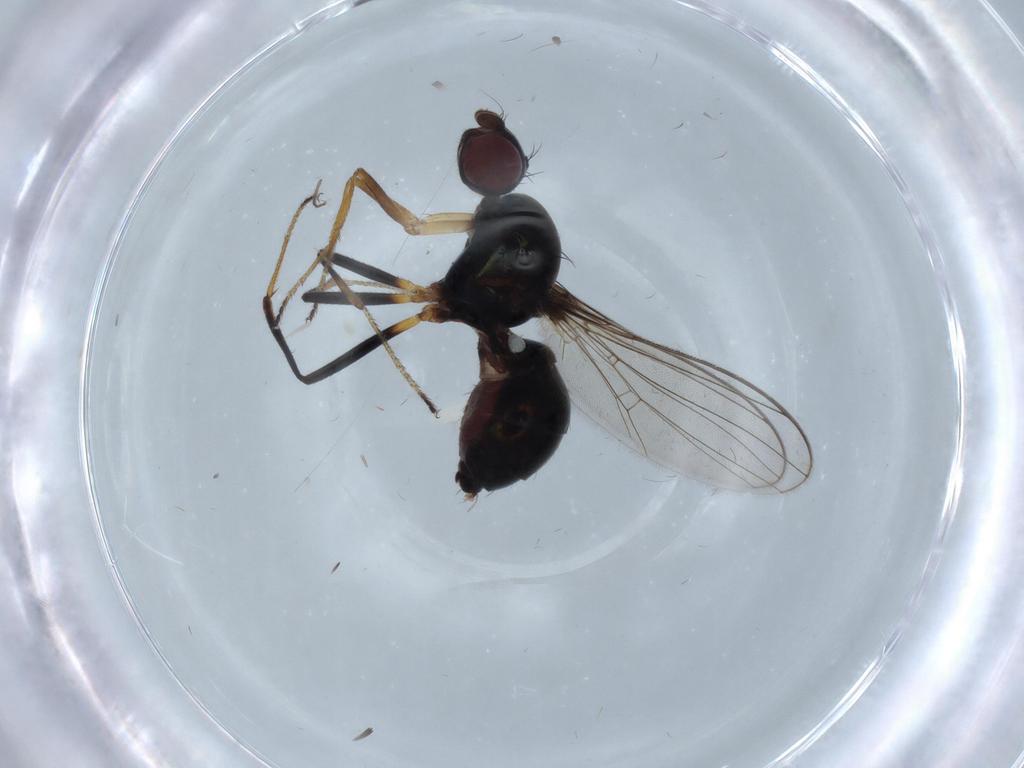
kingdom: Animalia
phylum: Arthropoda
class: Insecta
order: Diptera
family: Sepsidae
